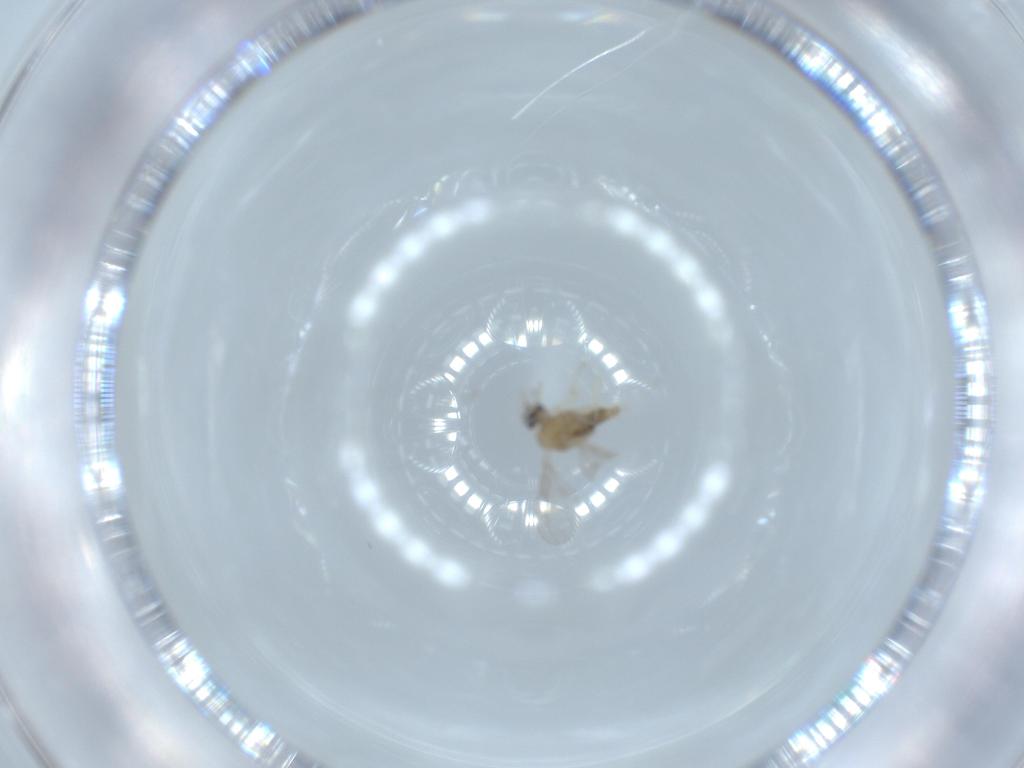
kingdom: Animalia
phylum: Arthropoda
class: Insecta
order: Diptera
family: Cecidomyiidae
